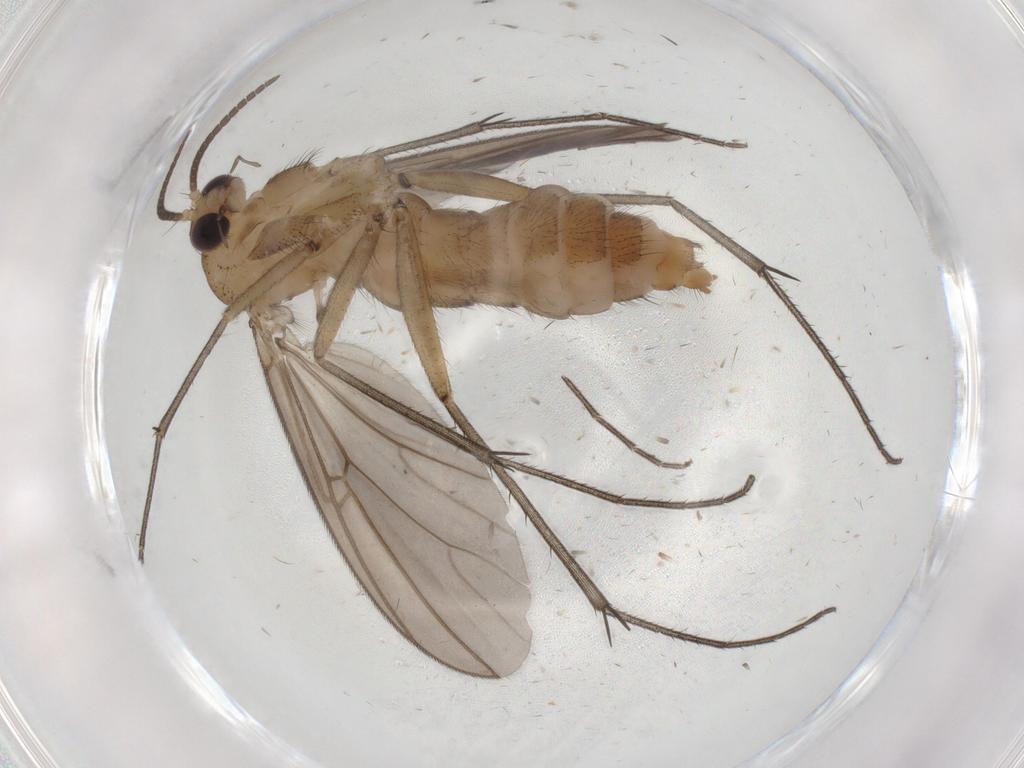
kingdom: Animalia
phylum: Arthropoda
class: Insecta
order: Diptera
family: Mycetophilidae
